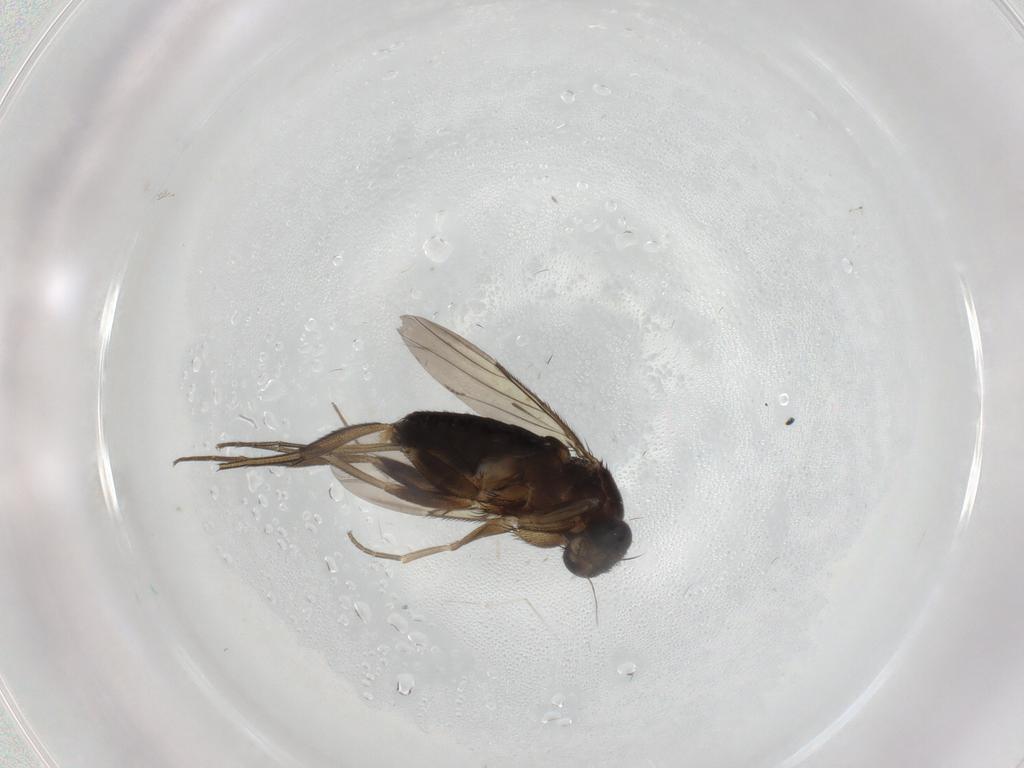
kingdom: Animalia
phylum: Arthropoda
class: Insecta
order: Diptera
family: Phoridae
